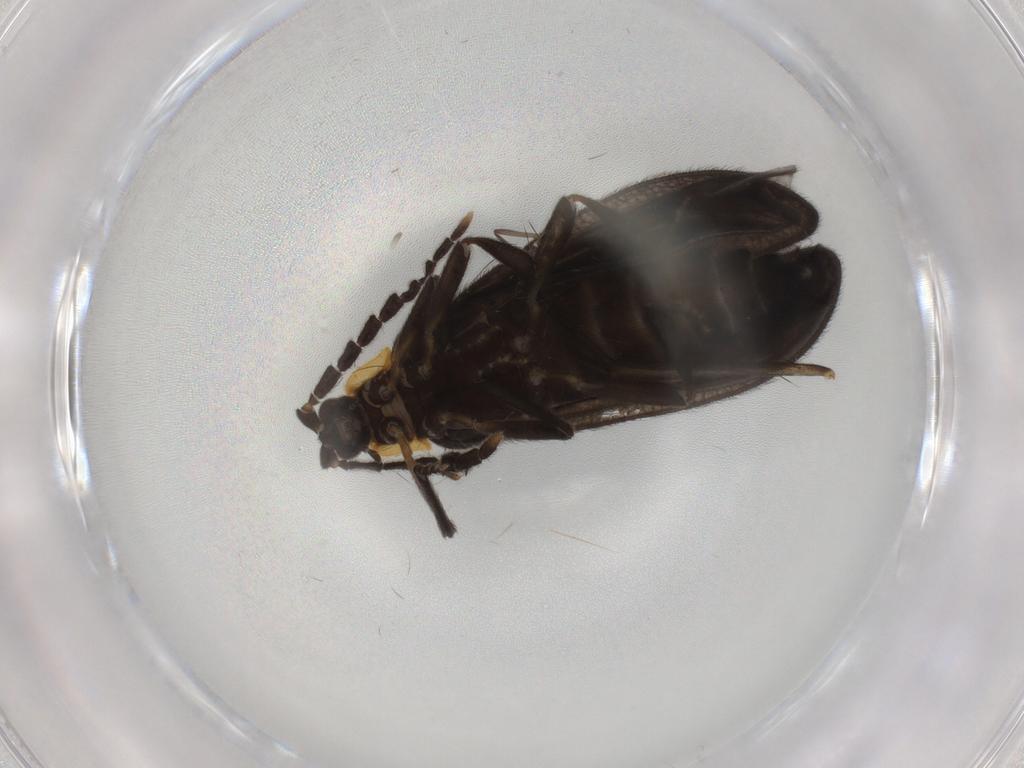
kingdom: Animalia
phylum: Arthropoda
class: Insecta
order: Coleoptera
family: Lycidae
